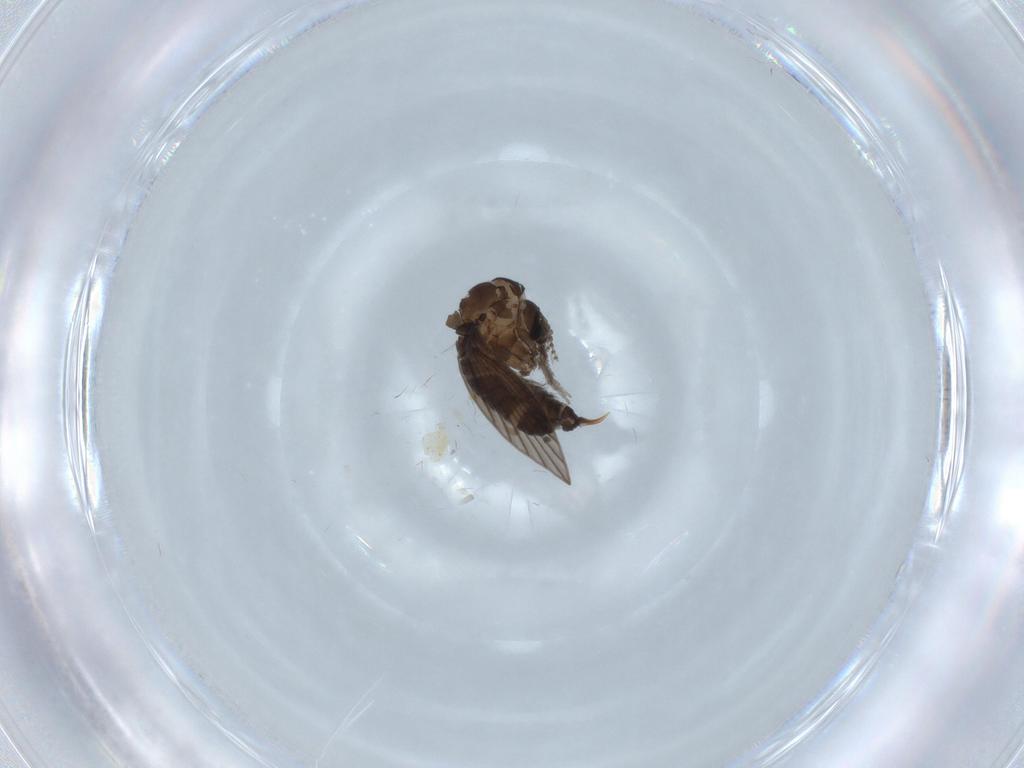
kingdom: Animalia
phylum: Arthropoda
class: Insecta
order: Diptera
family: Psychodidae
